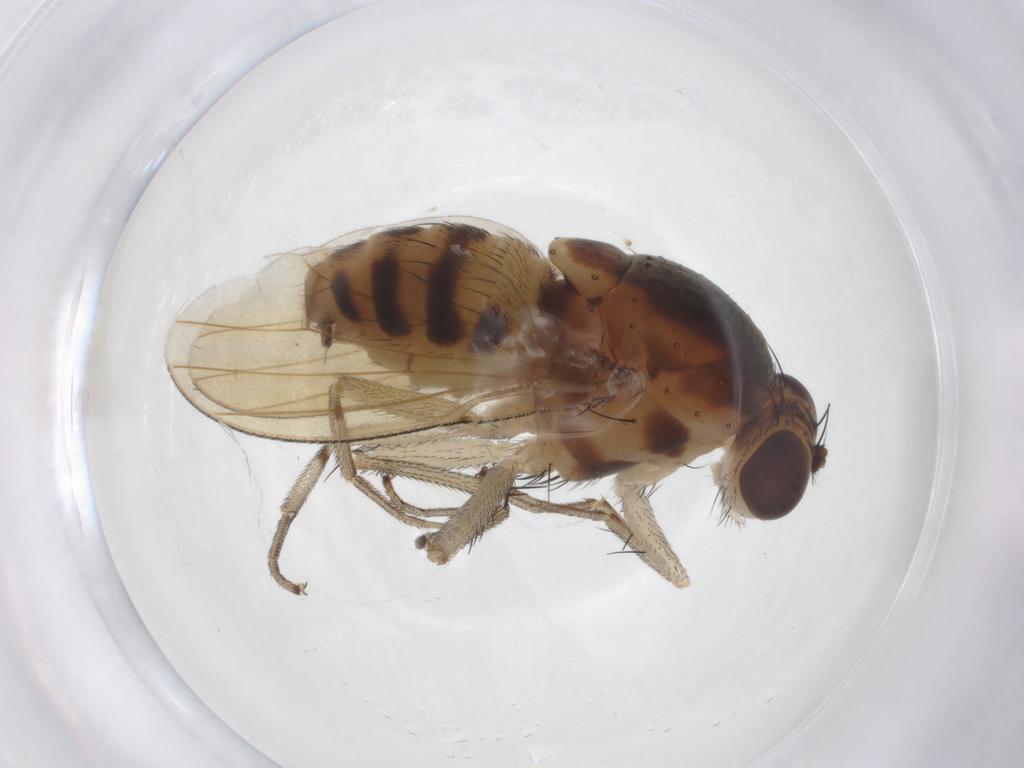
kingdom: Animalia
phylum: Arthropoda
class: Insecta
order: Diptera
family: Lauxaniidae
